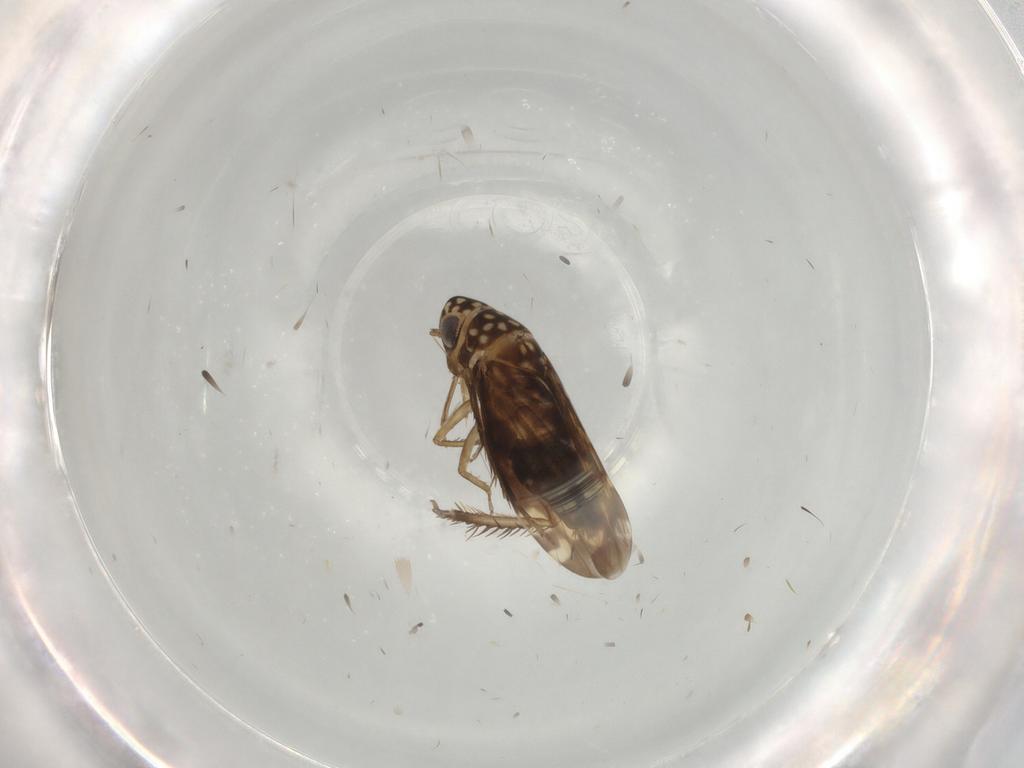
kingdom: Animalia
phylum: Arthropoda
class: Insecta
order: Hemiptera
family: Cicadellidae
